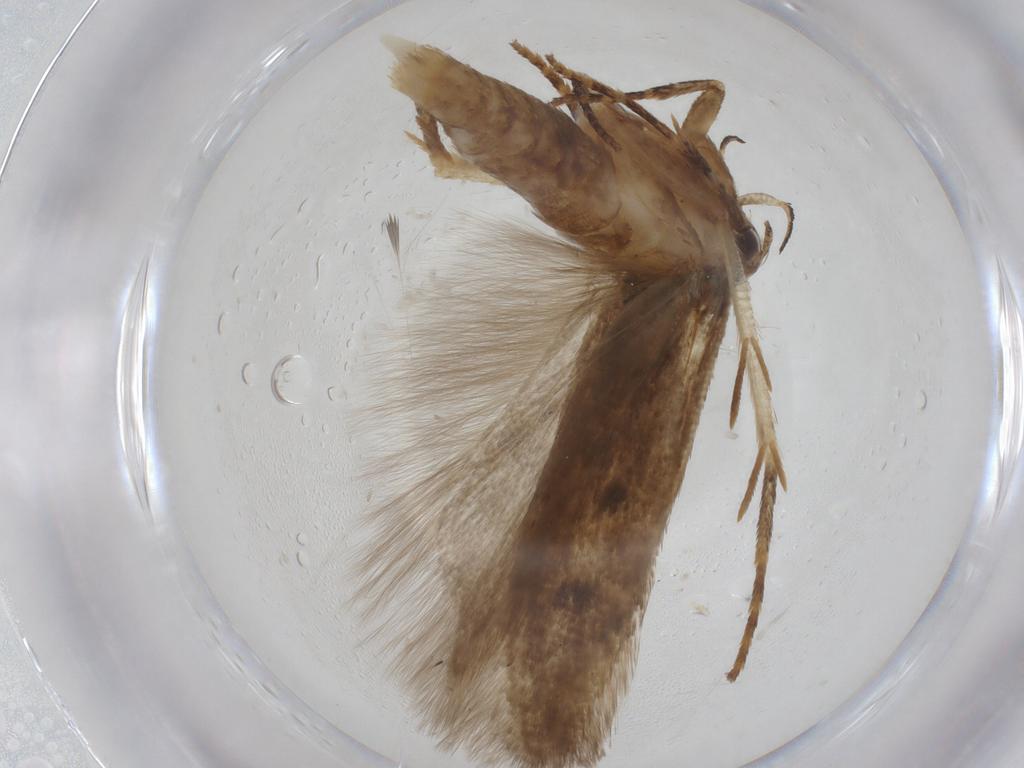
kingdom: Animalia
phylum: Arthropoda
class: Insecta
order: Lepidoptera
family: Gelechiidae
